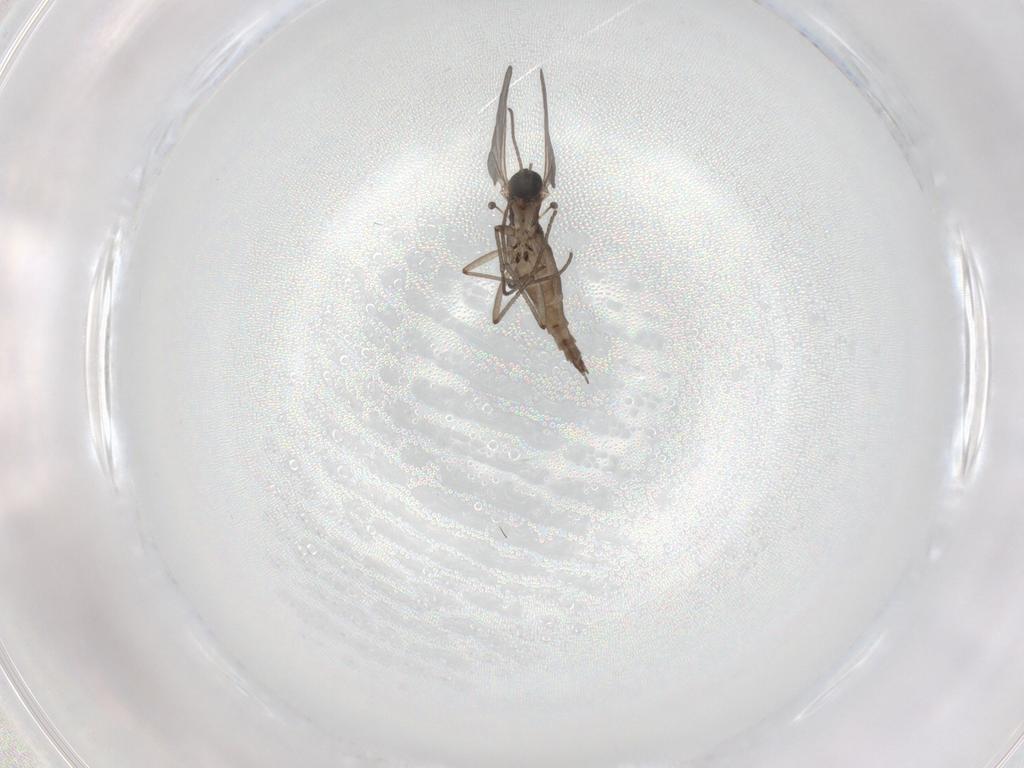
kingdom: Animalia
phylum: Arthropoda
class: Insecta
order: Diptera
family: Sciaridae
